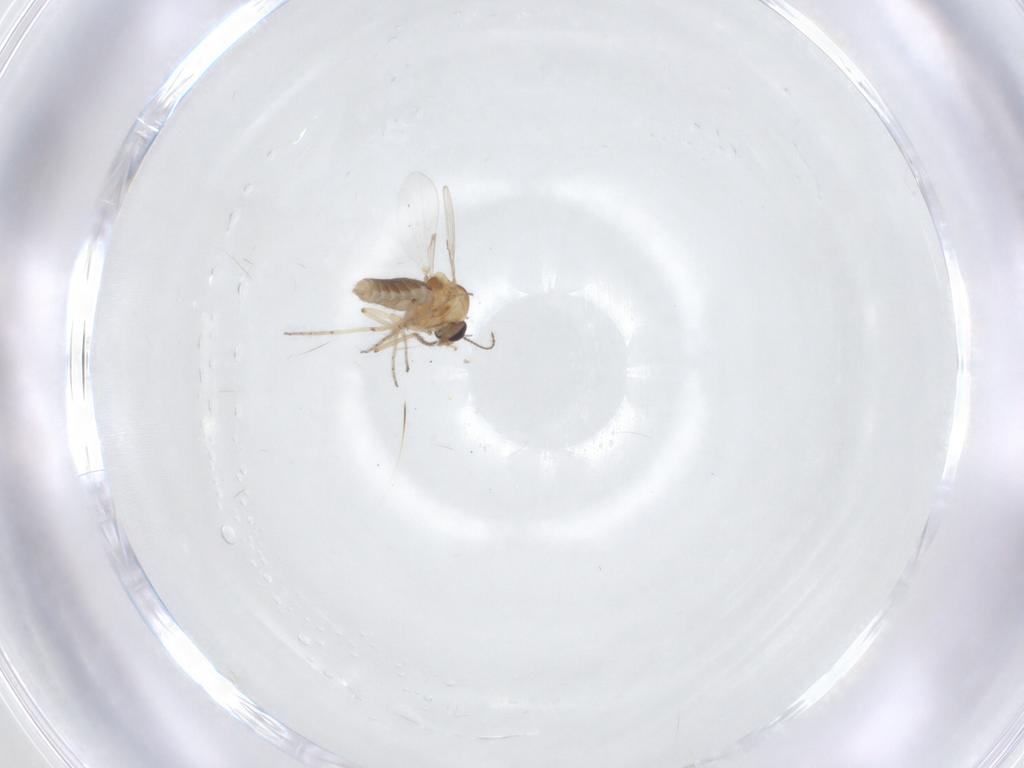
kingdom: Animalia
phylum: Arthropoda
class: Insecta
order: Diptera
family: Ceratopogonidae
